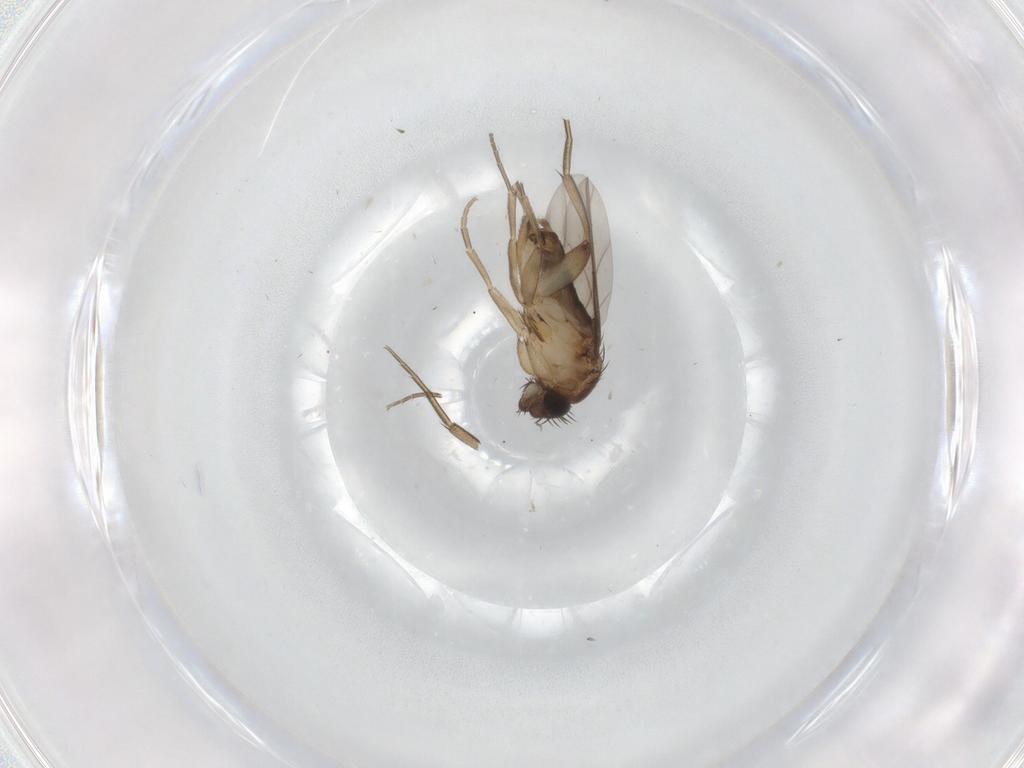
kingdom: Animalia
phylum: Arthropoda
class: Insecta
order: Diptera
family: Phoridae
